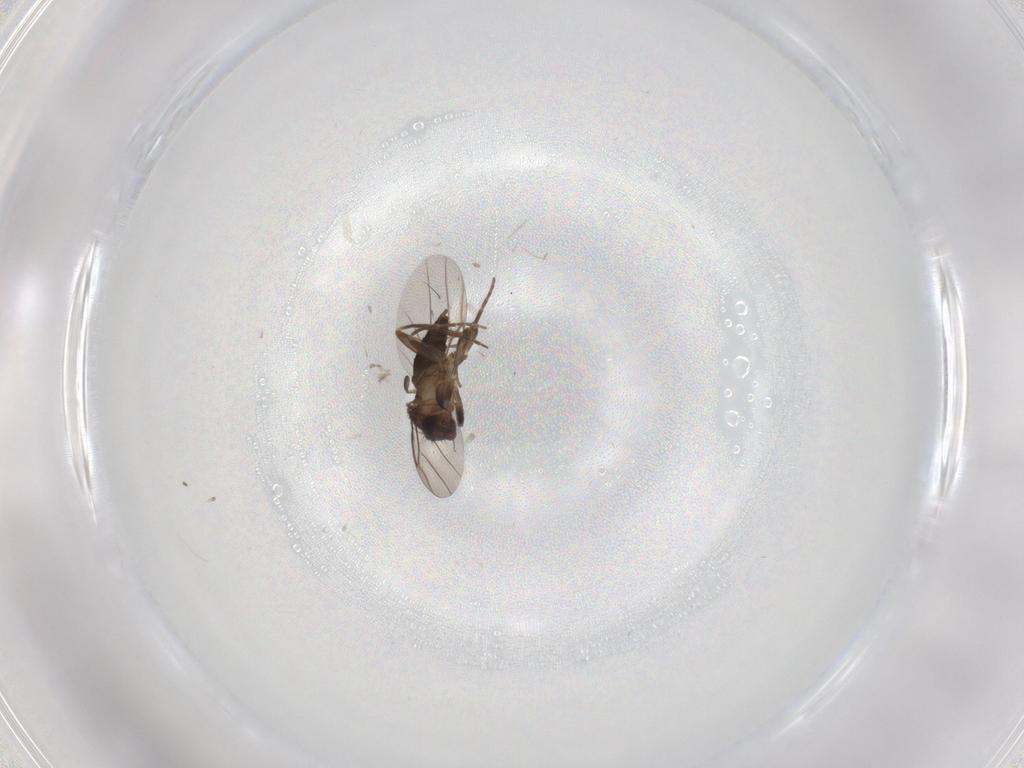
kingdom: Animalia
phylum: Arthropoda
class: Insecta
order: Diptera
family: Phoridae
